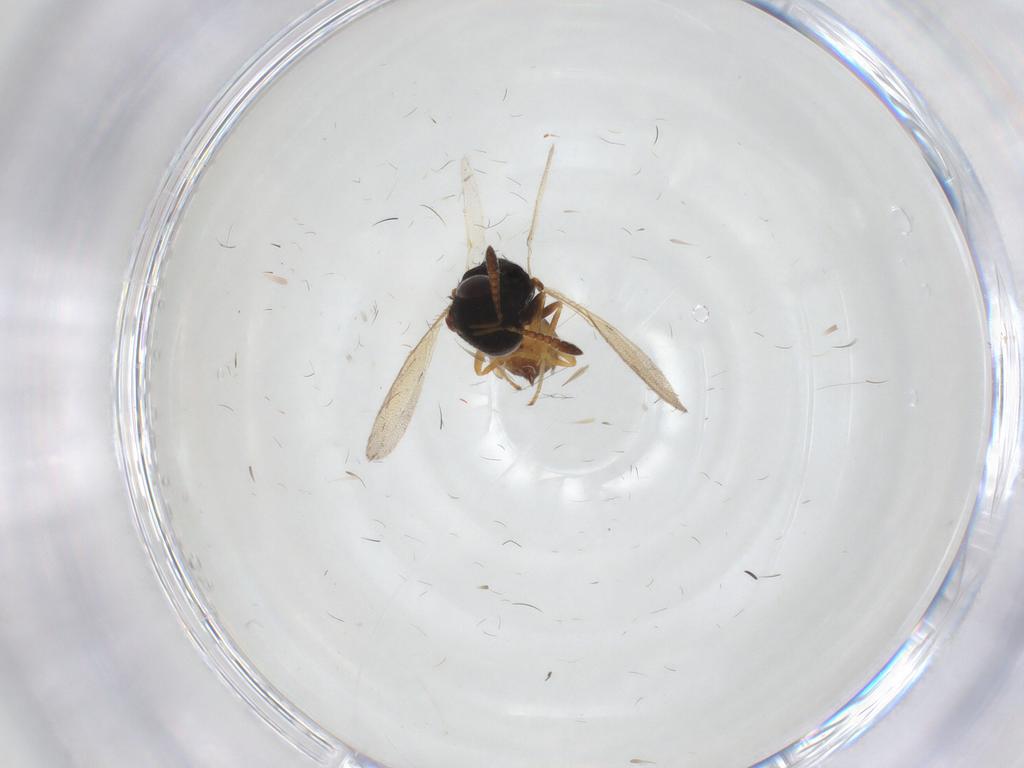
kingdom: Animalia
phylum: Arthropoda
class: Insecta
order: Hymenoptera
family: Pteromalidae
